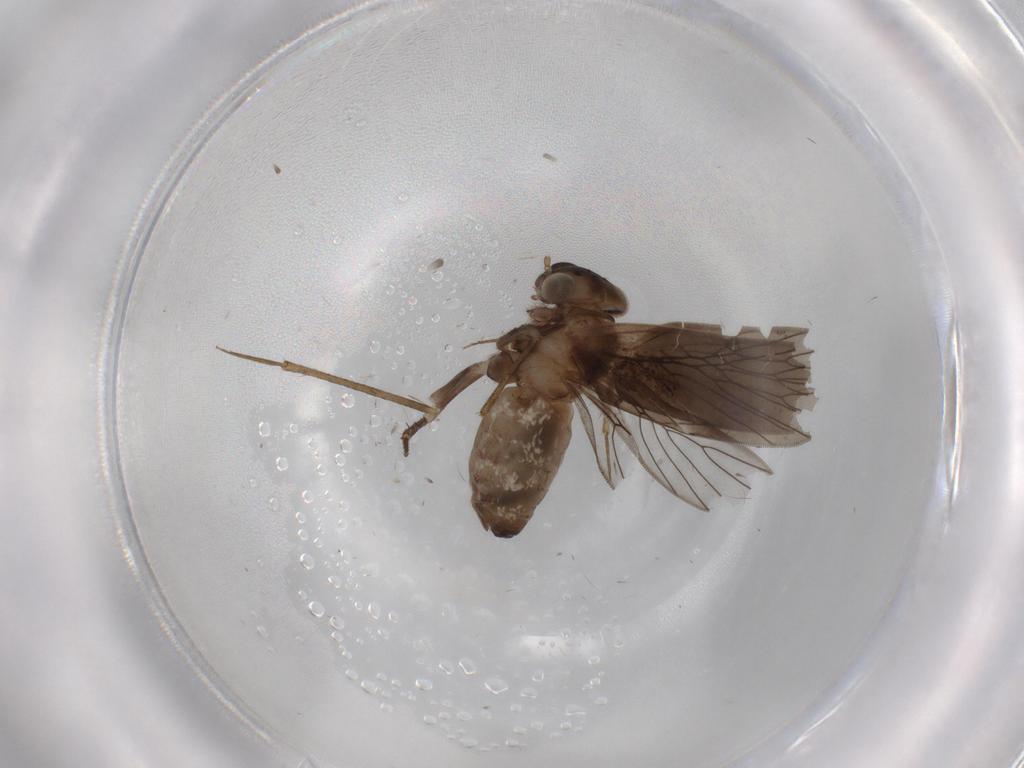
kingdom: Animalia
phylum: Arthropoda
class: Insecta
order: Psocodea
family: Lepidopsocidae
